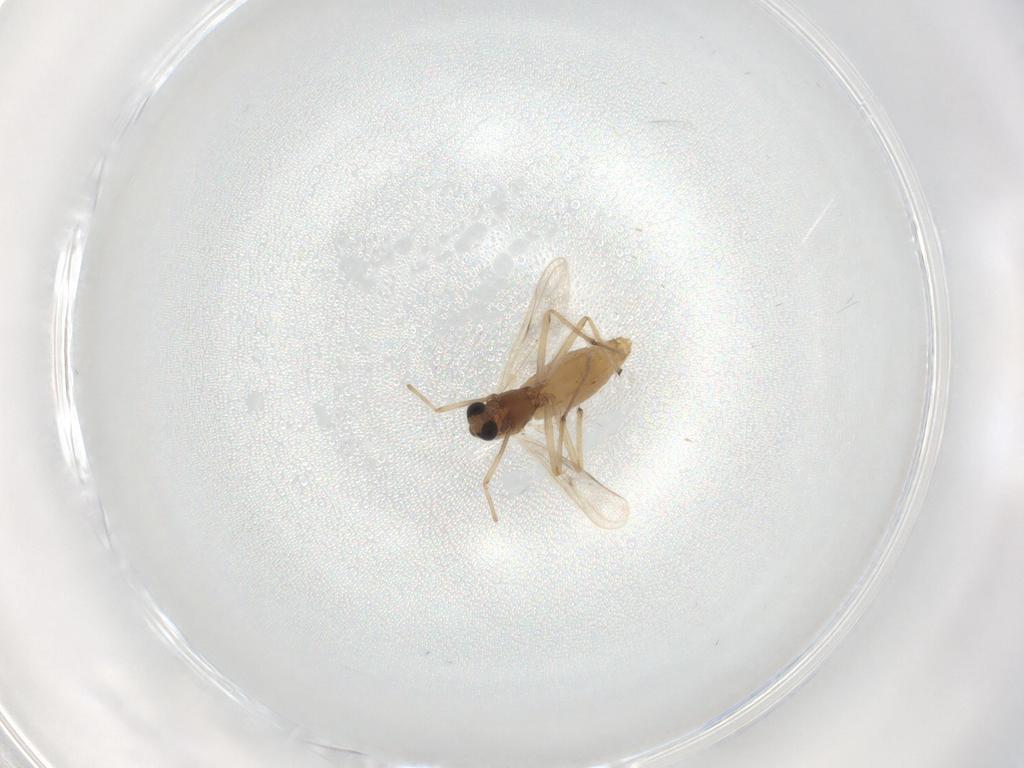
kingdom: Animalia
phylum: Arthropoda
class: Insecta
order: Diptera
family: Chironomidae
